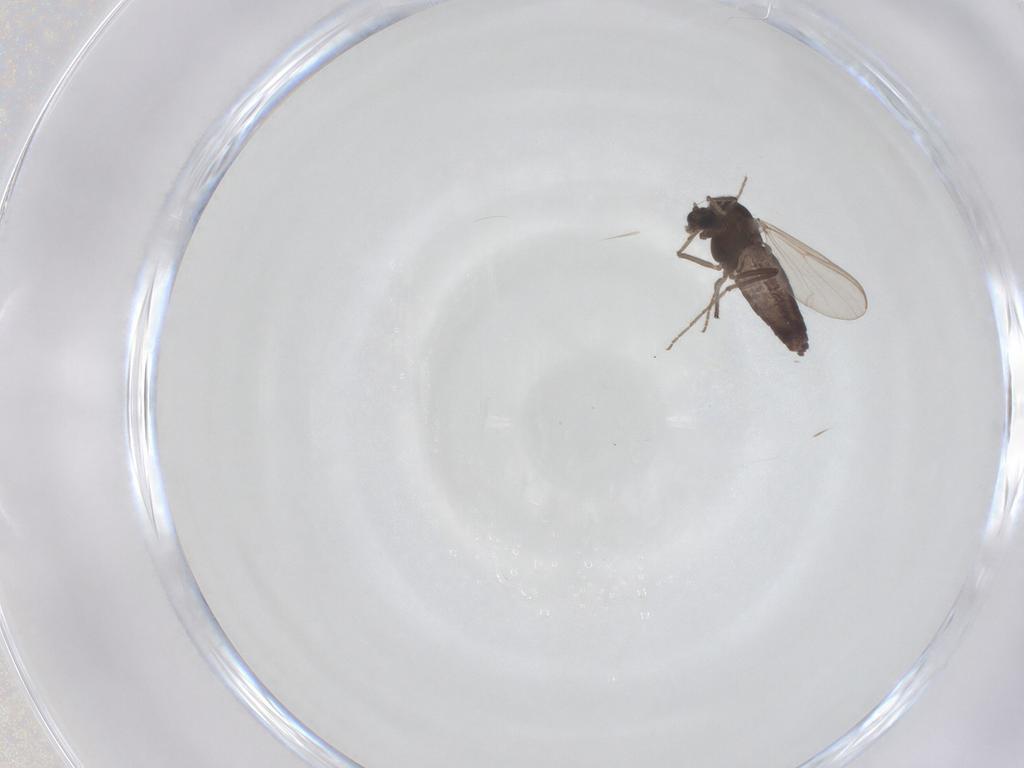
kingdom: Animalia
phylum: Arthropoda
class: Insecta
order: Diptera
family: Chironomidae
